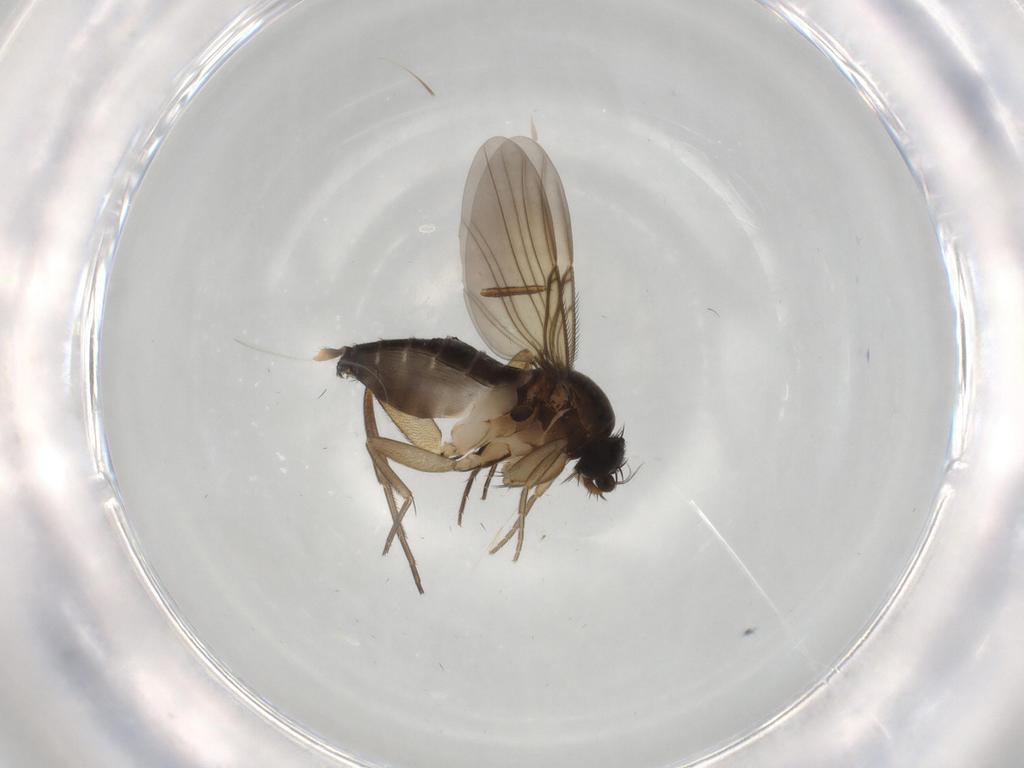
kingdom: Animalia
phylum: Arthropoda
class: Insecta
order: Diptera
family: Phoridae
